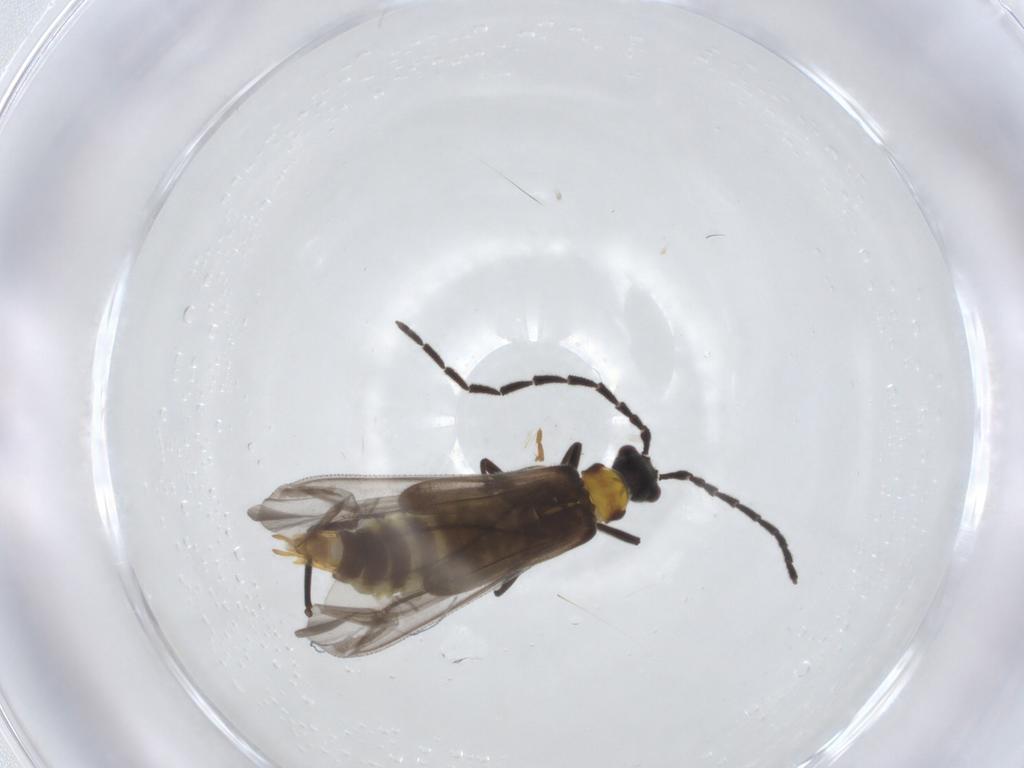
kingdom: Animalia
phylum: Arthropoda
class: Insecta
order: Coleoptera
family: Cantharidae
